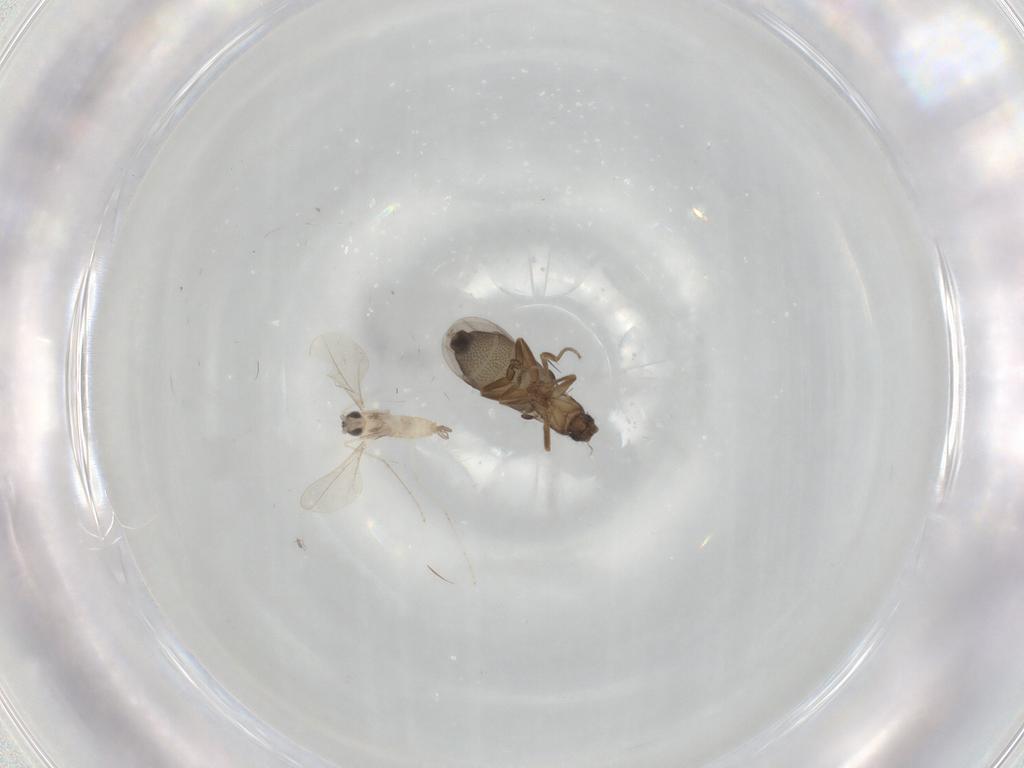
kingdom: Animalia
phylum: Arthropoda
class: Insecta
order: Diptera
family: Cecidomyiidae
